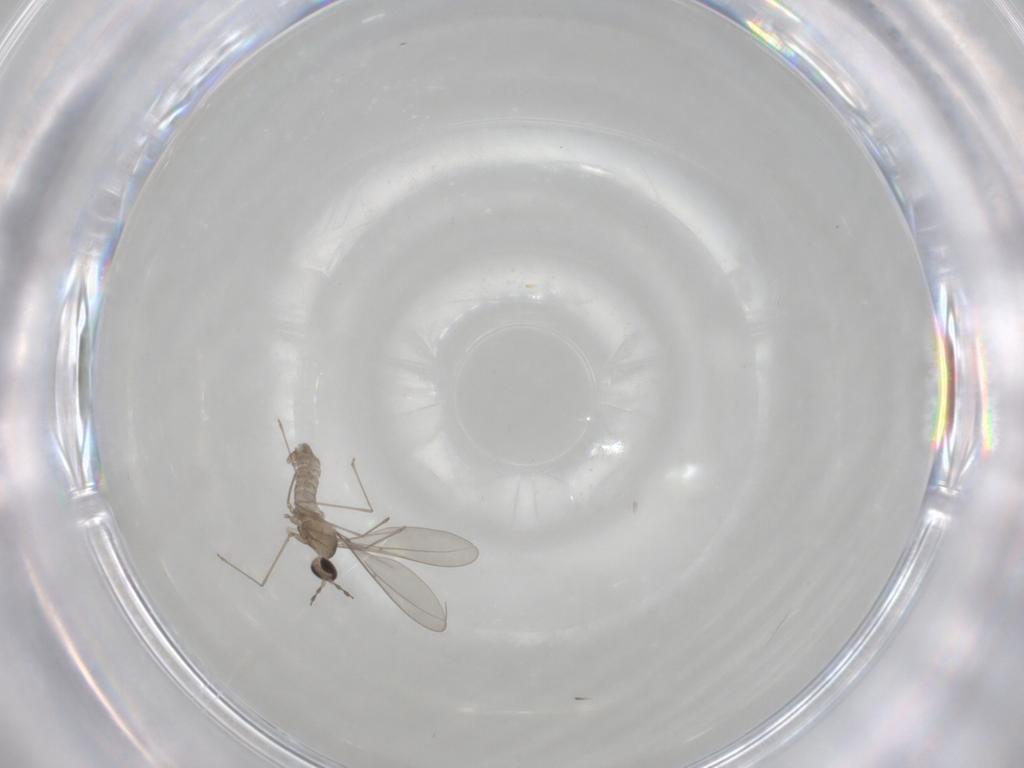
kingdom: Animalia
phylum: Arthropoda
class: Insecta
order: Diptera
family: Cecidomyiidae
